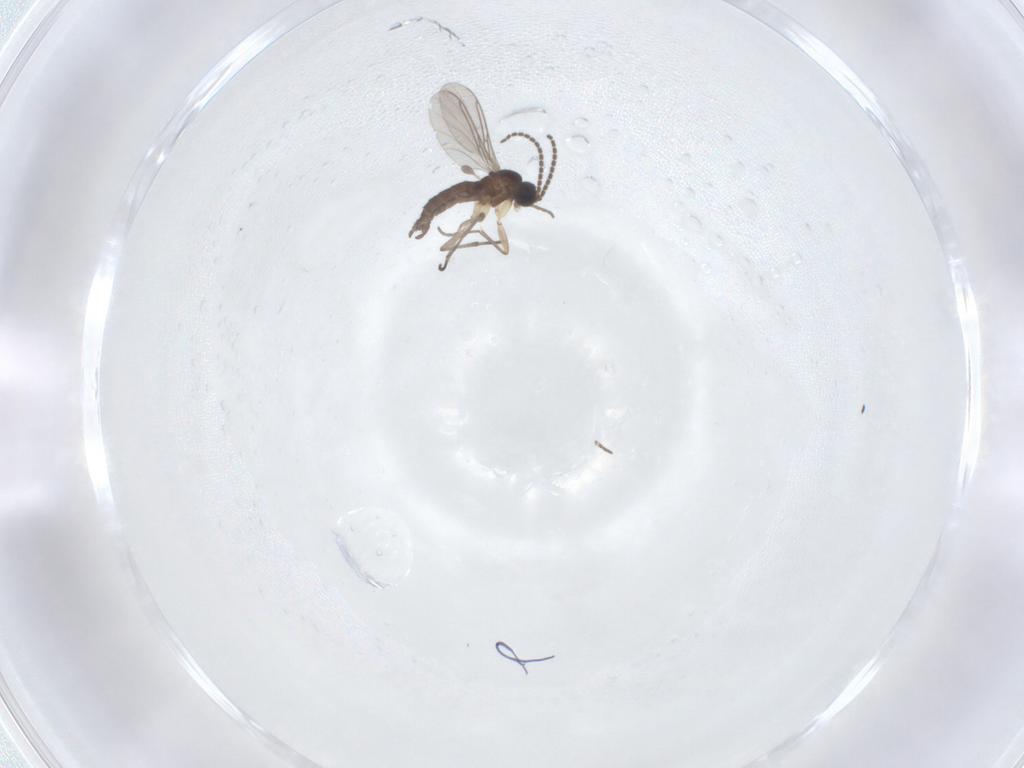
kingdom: Animalia
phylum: Arthropoda
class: Insecta
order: Diptera
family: Sciaridae
